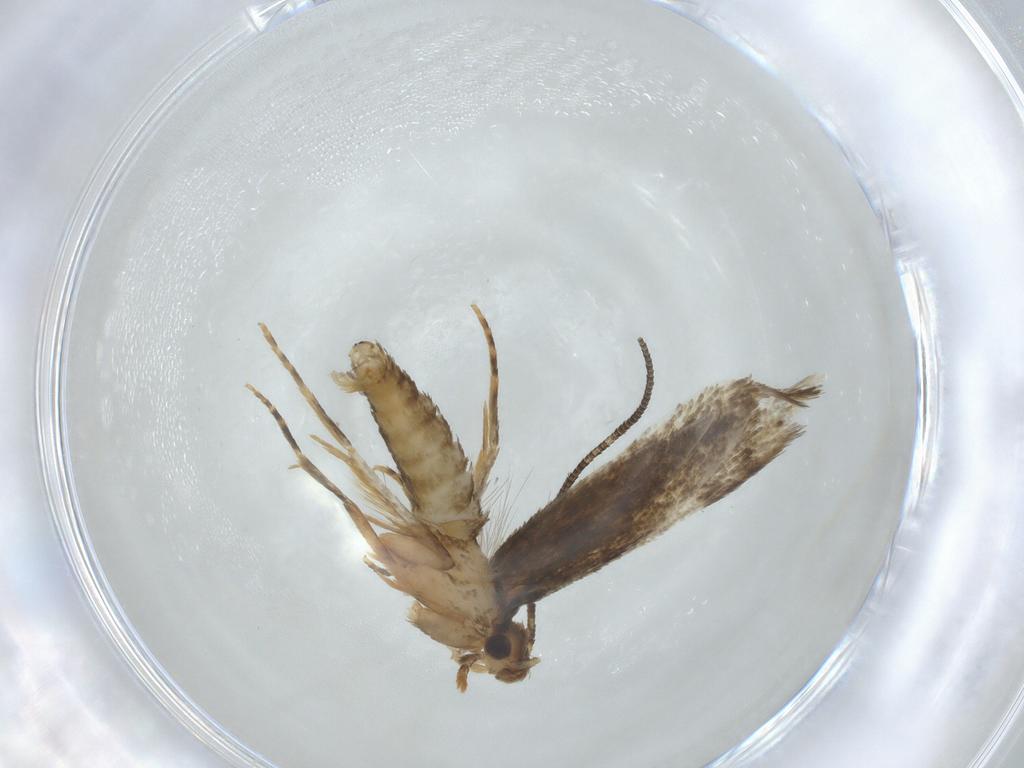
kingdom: Animalia
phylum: Arthropoda
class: Insecta
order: Lepidoptera
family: Tineidae
